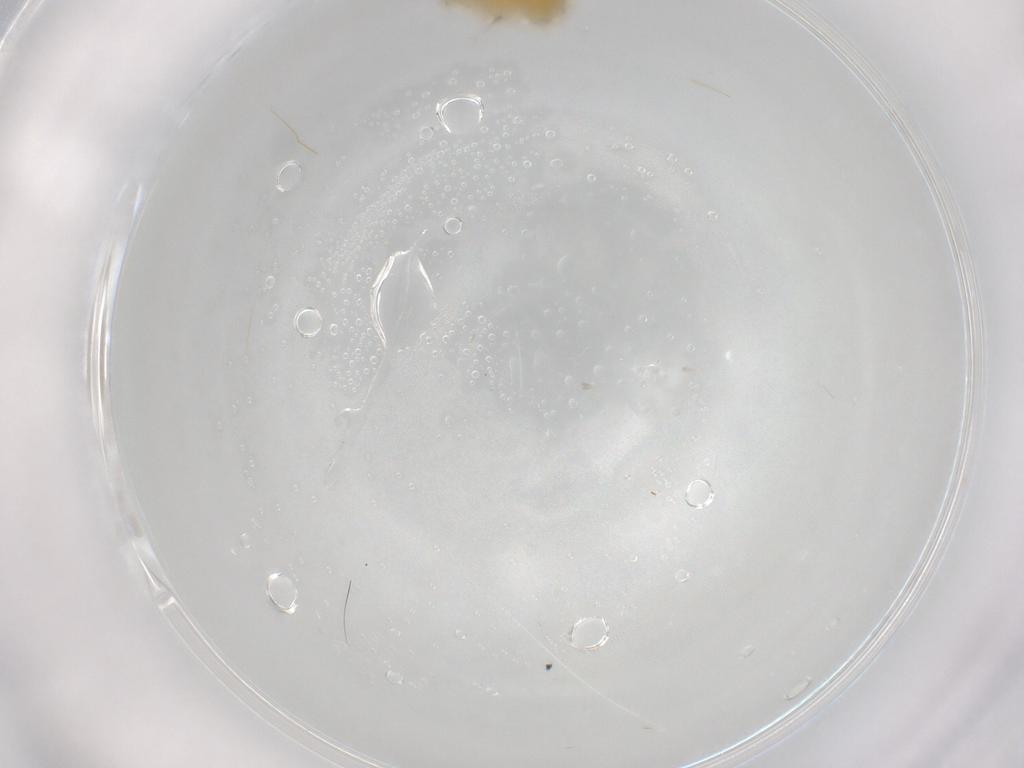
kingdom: Animalia
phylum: Arthropoda
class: Insecta
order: Hemiptera
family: Cicadellidae
